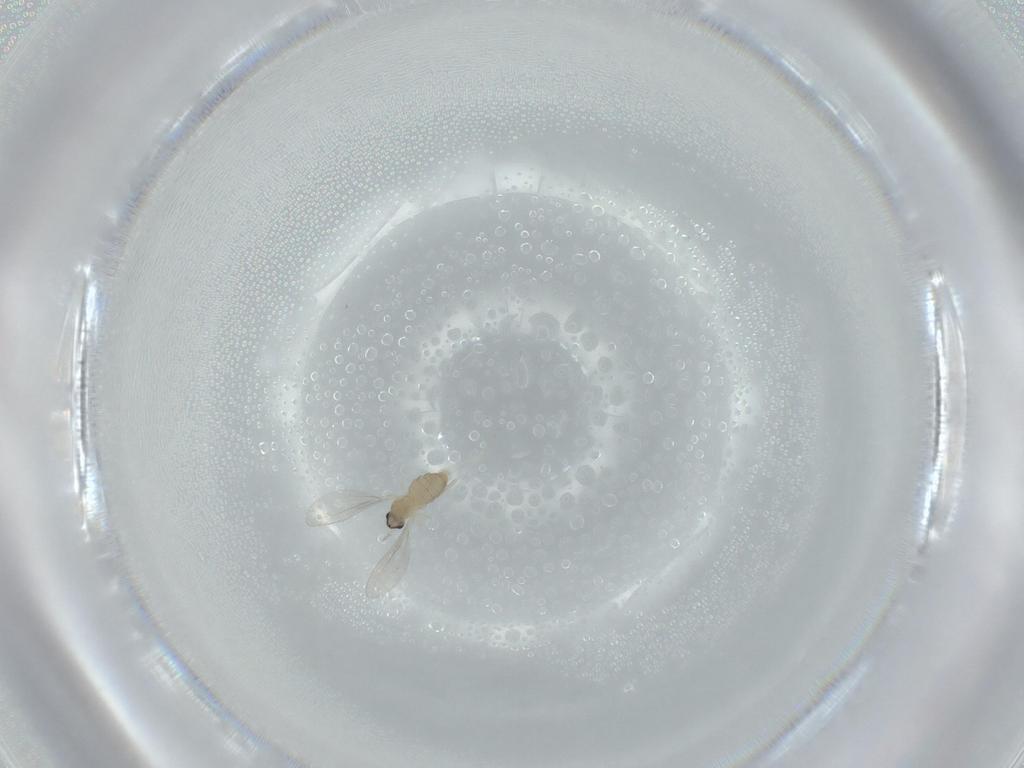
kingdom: Animalia
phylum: Arthropoda
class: Insecta
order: Diptera
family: Cecidomyiidae
